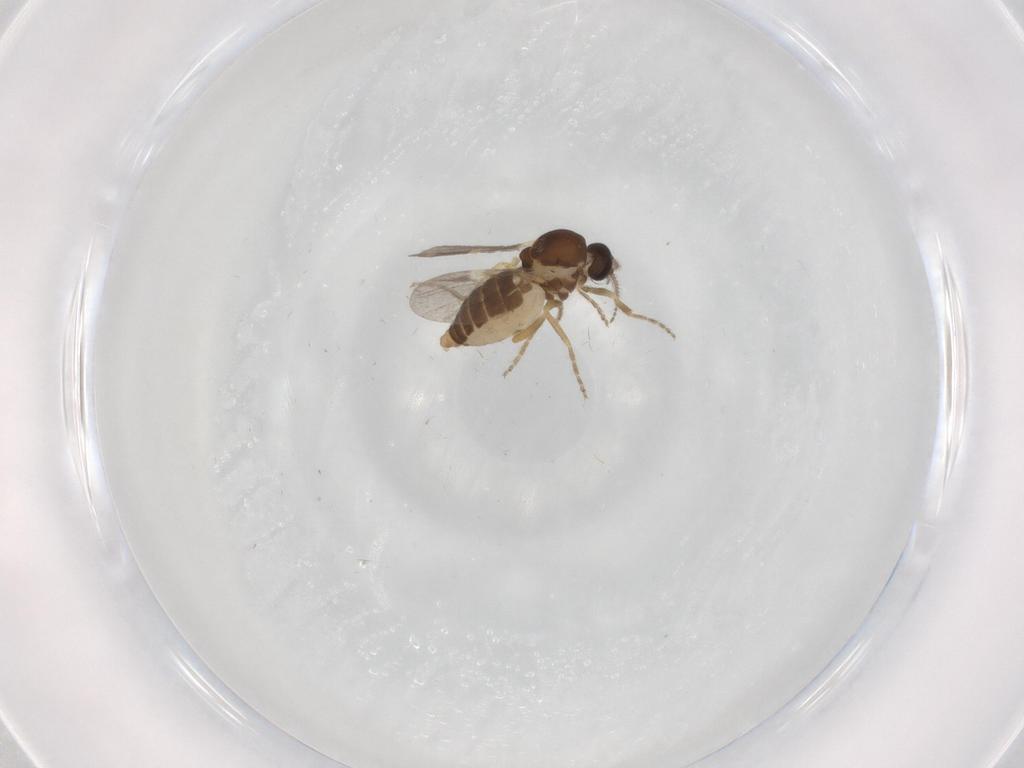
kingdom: Animalia
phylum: Arthropoda
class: Insecta
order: Diptera
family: Ceratopogonidae
